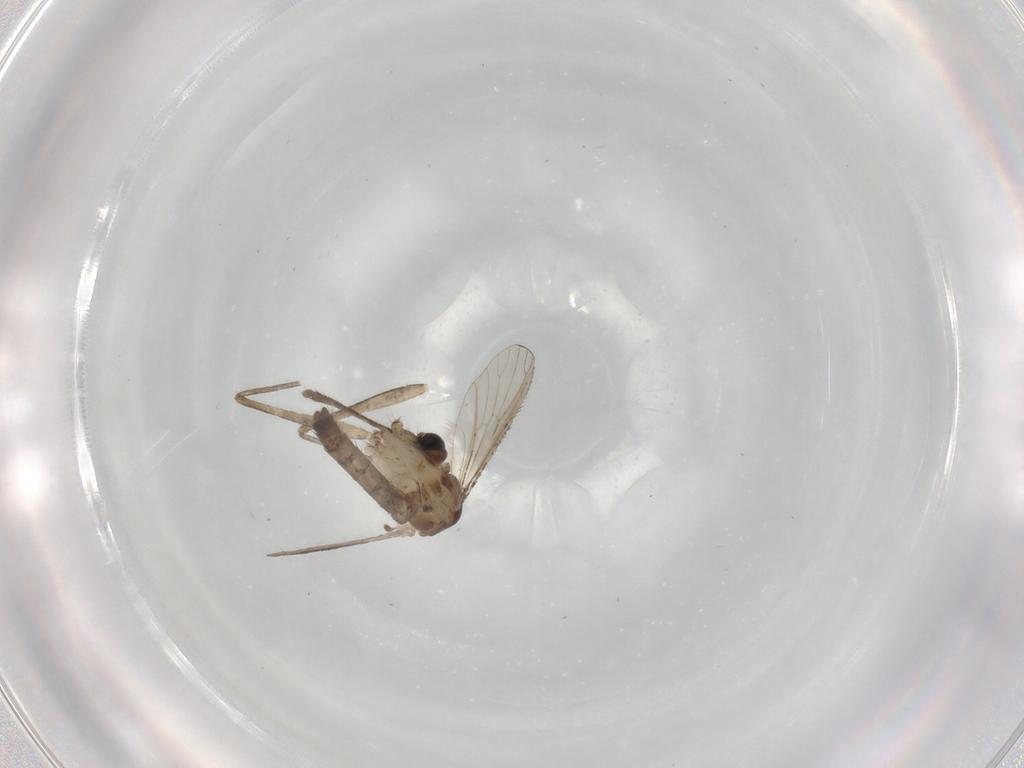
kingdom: Animalia
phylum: Arthropoda
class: Insecta
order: Diptera
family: Culicidae
